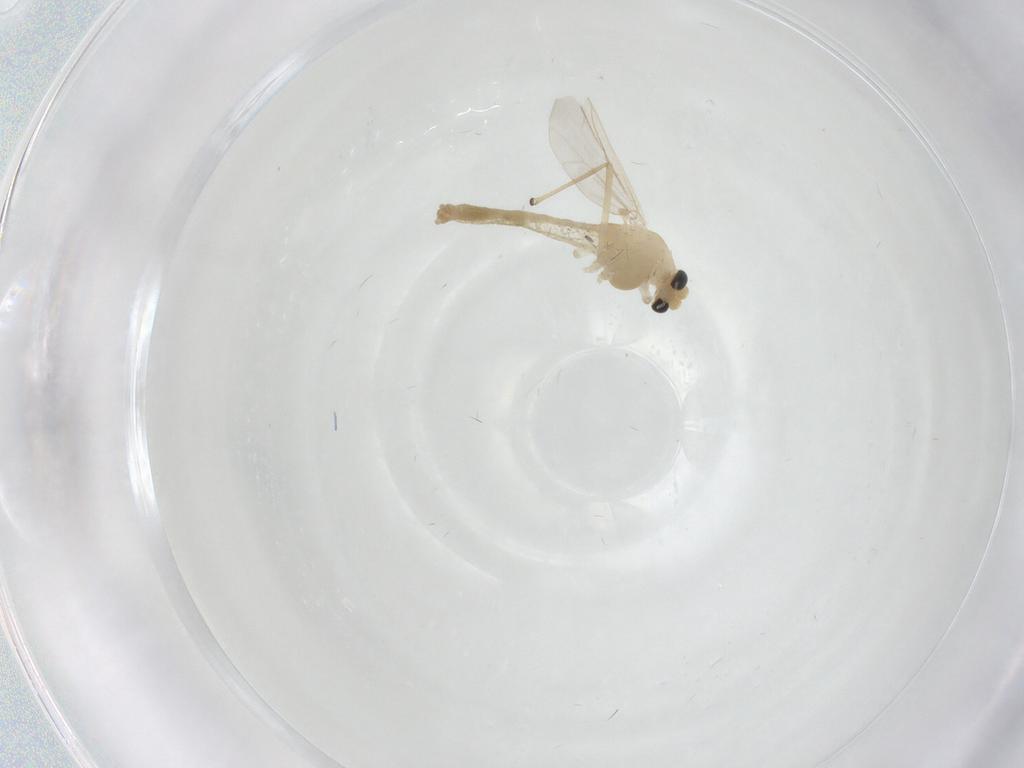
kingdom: Animalia
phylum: Arthropoda
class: Insecta
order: Diptera
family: Chironomidae
